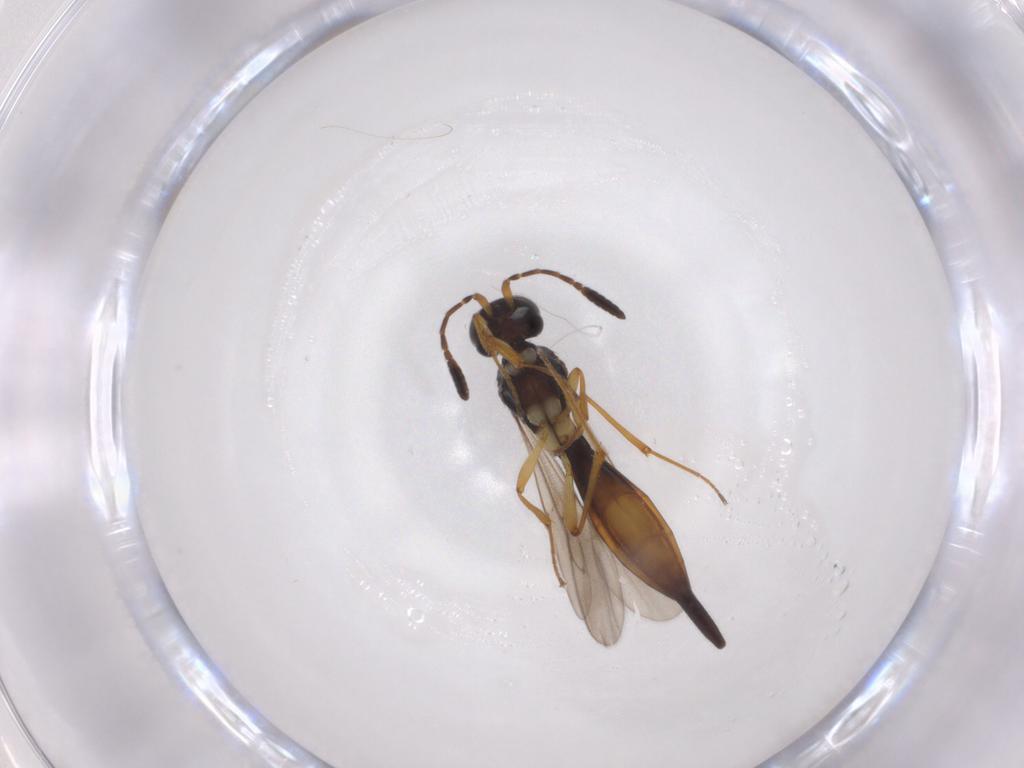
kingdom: Animalia
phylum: Arthropoda
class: Insecta
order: Hymenoptera
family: Scelionidae
